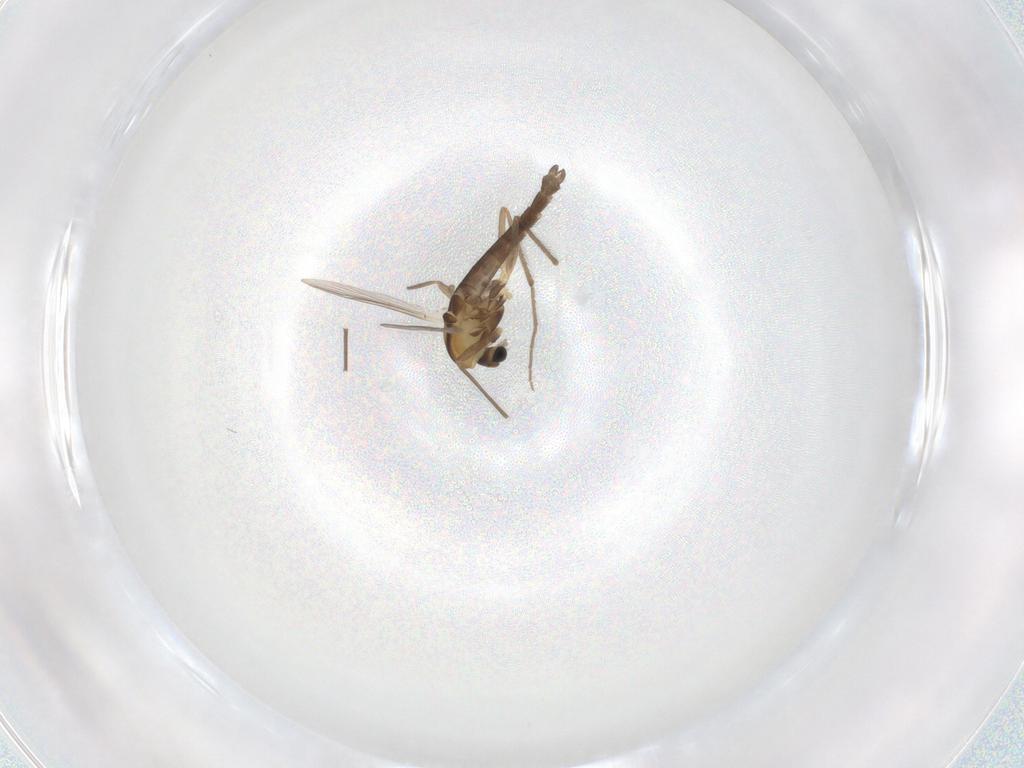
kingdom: Animalia
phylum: Arthropoda
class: Insecta
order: Diptera
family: Chironomidae
